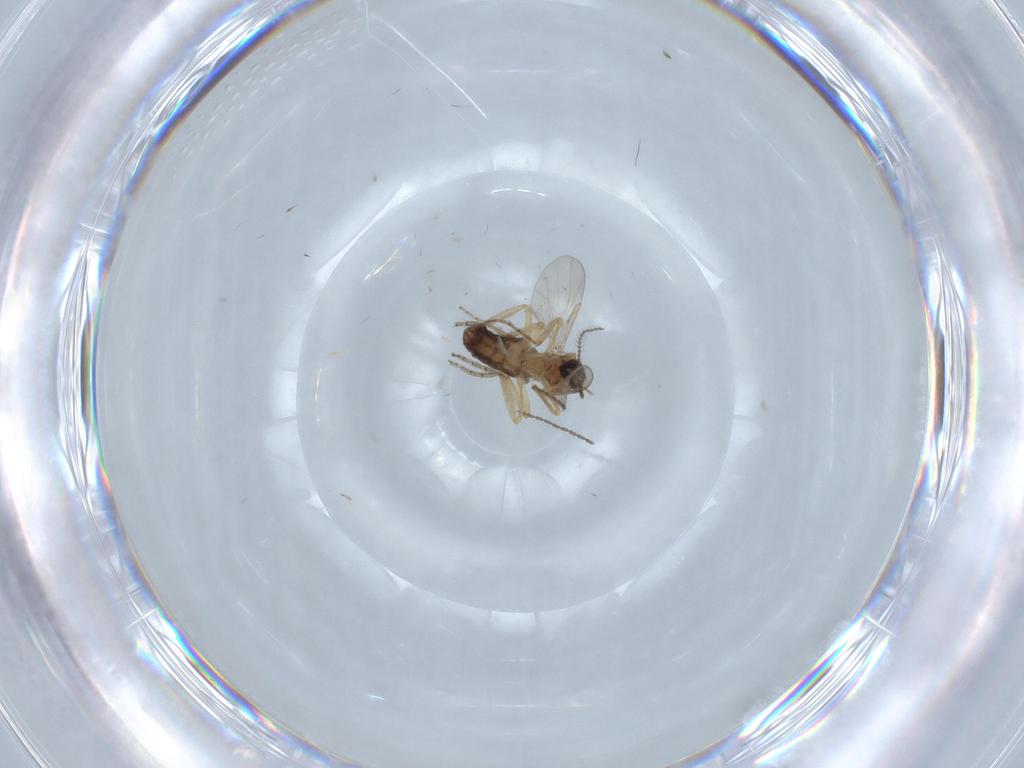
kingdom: Animalia
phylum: Arthropoda
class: Insecta
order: Diptera
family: Ceratopogonidae
